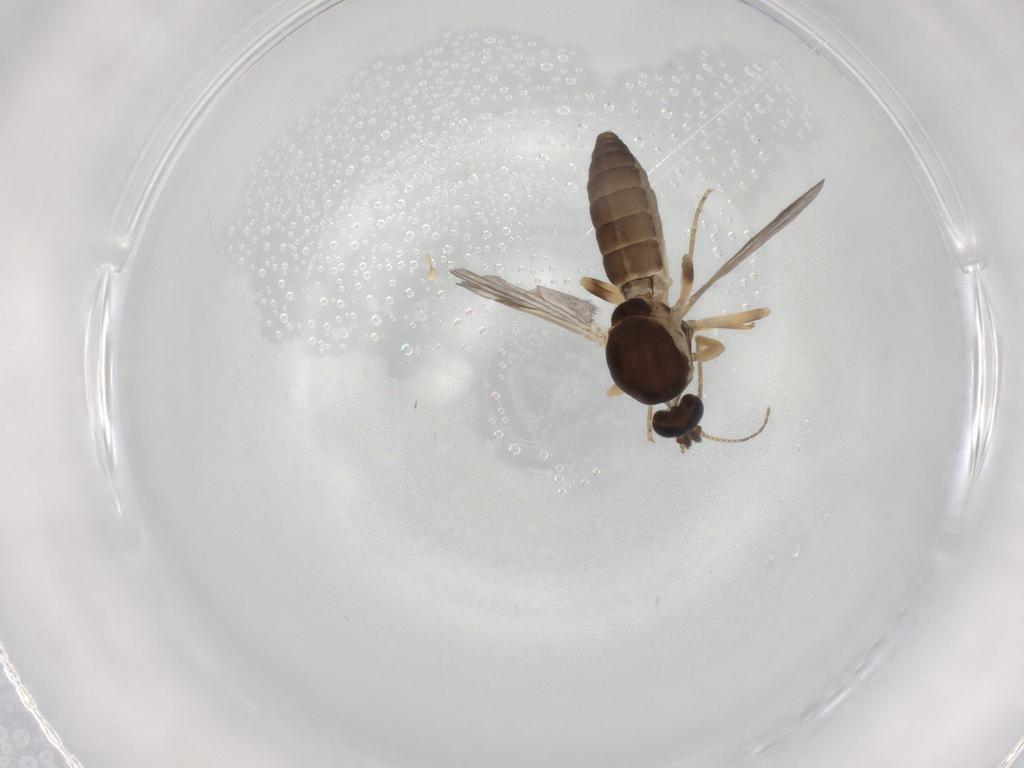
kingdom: Animalia
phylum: Arthropoda
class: Insecta
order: Diptera
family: Ceratopogonidae
